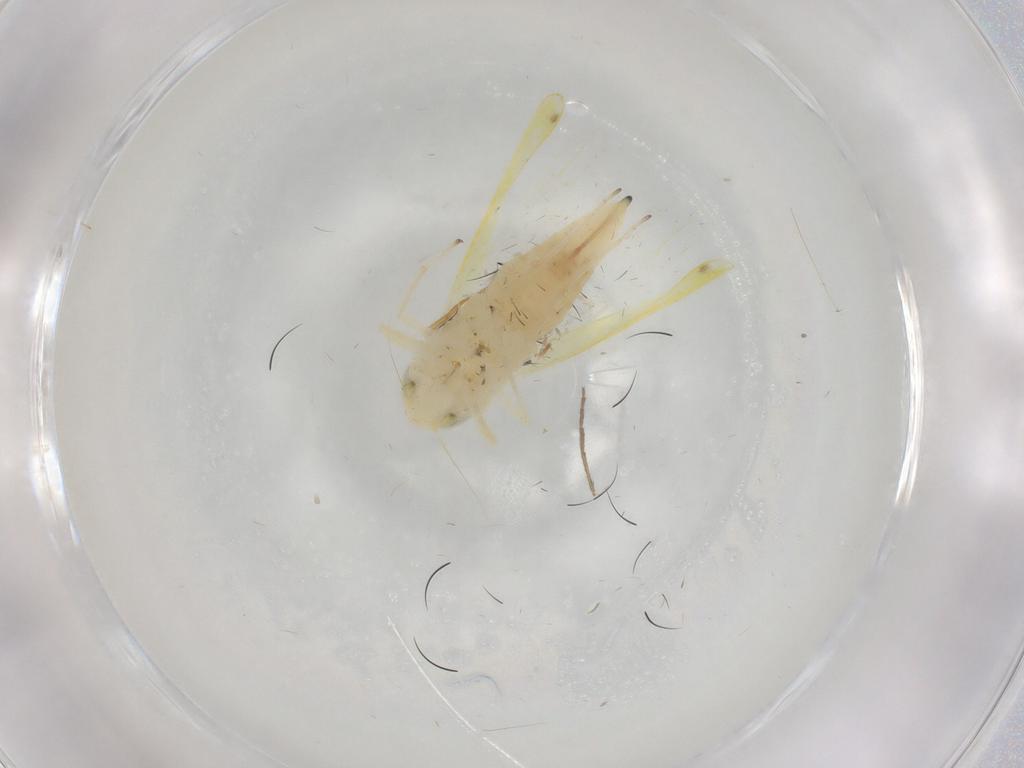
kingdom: Animalia
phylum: Arthropoda
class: Insecta
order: Hemiptera
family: Cicadellidae
